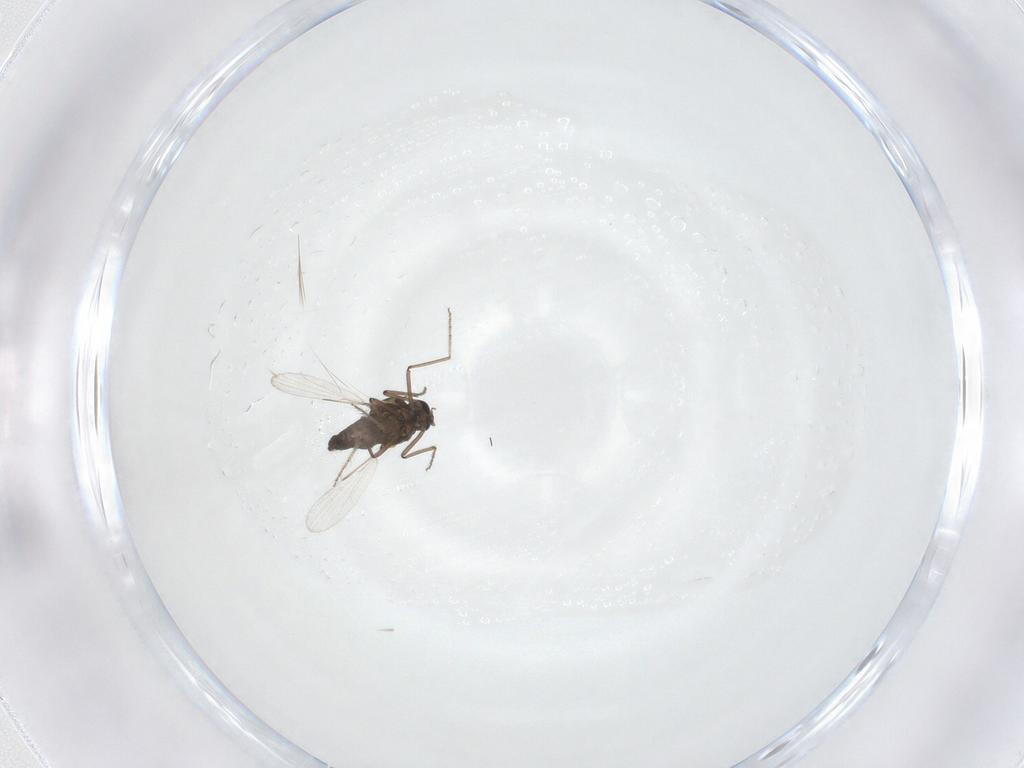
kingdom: Animalia
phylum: Arthropoda
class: Insecta
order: Diptera
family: Ceratopogonidae
